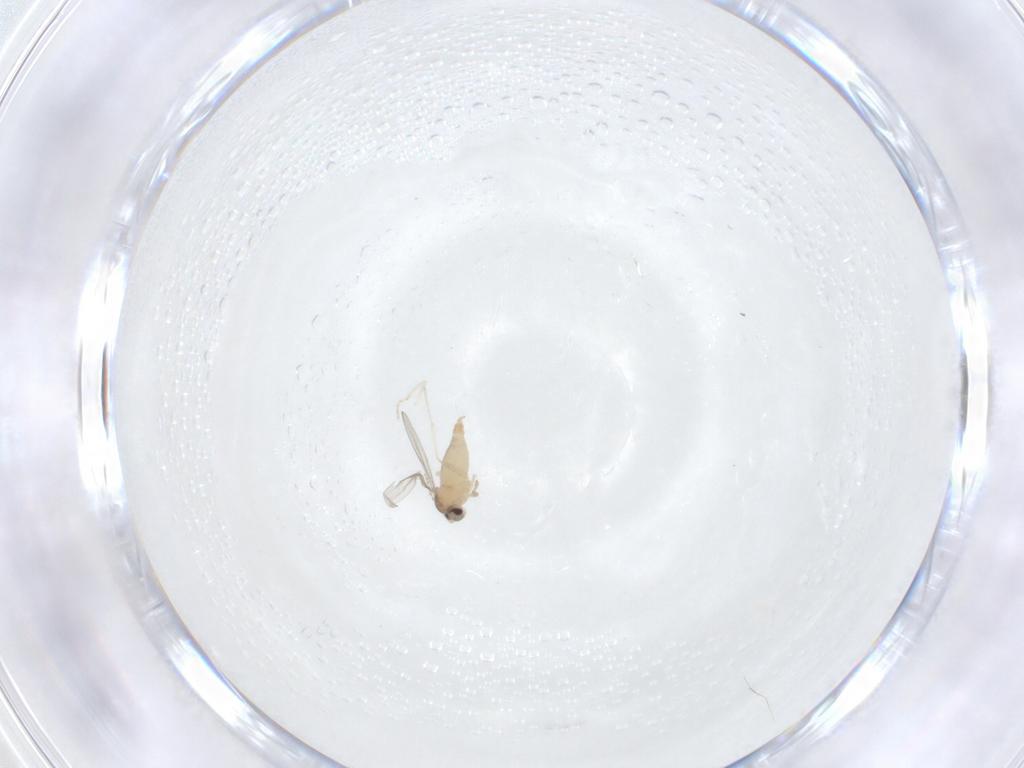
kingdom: Animalia
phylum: Arthropoda
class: Insecta
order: Diptera
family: Cecidomyiidae
